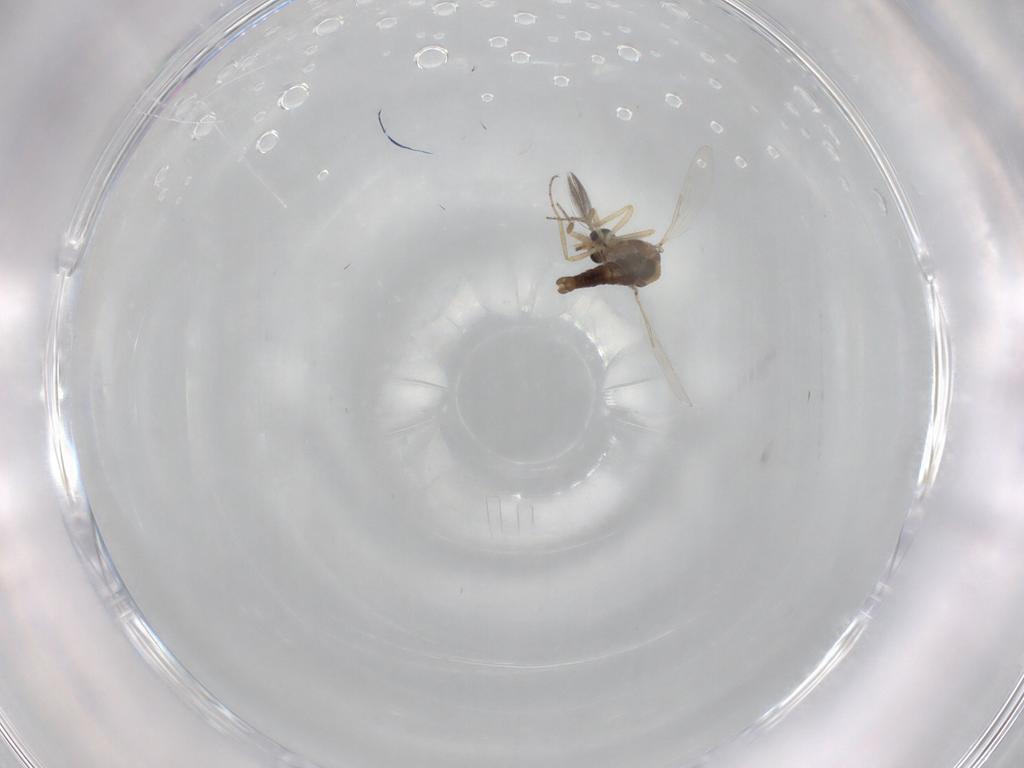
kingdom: Animalia
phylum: Arthropoda
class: Insecta
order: Diptera
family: Ceratopogonidae
